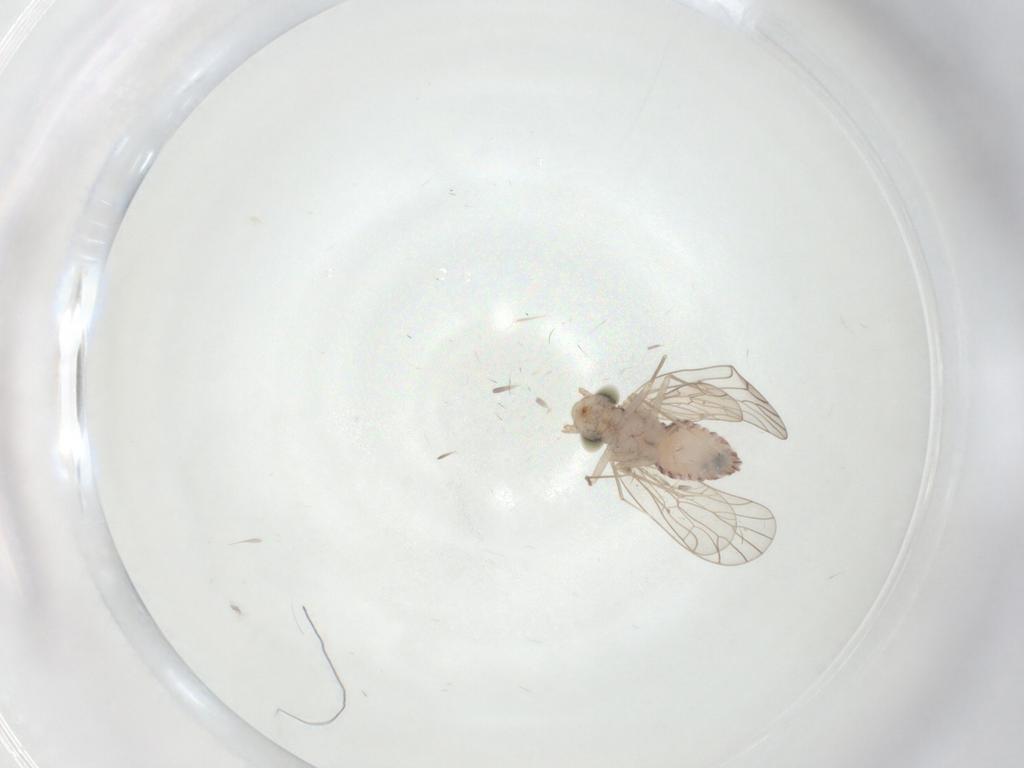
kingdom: Animalia
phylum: Arthropoda
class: Insecta
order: Psocodea
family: Amphientomidae
